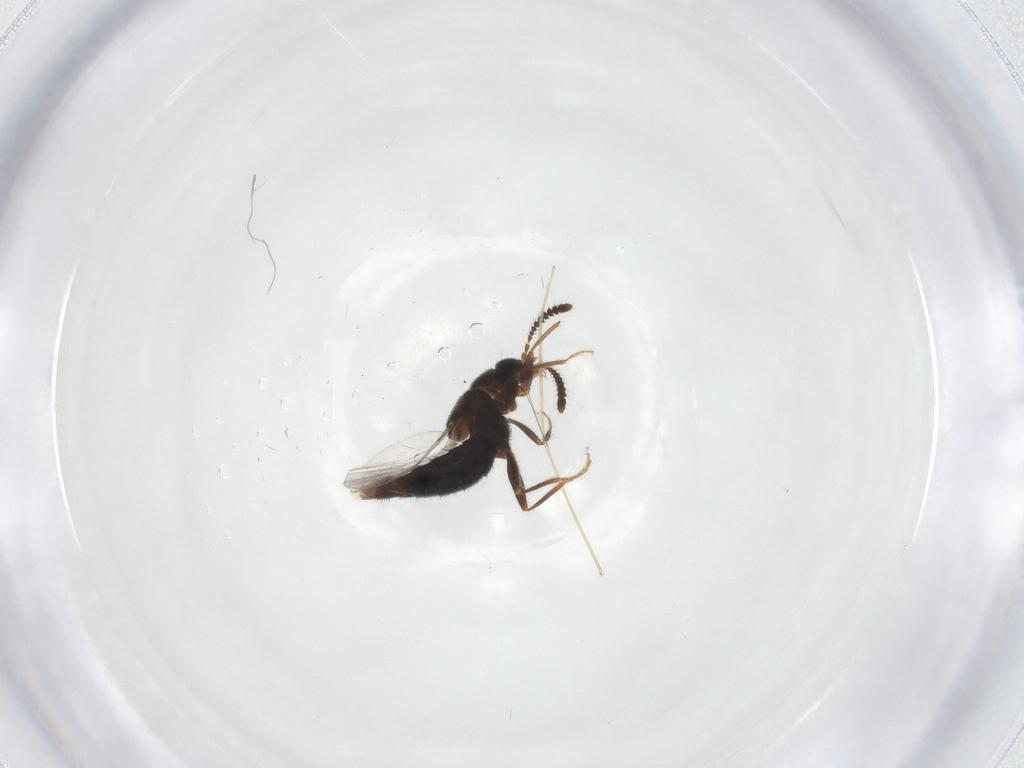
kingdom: Animalia
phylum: Arthropoda
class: Insecta
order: Coleoptera
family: Staphylinidae
